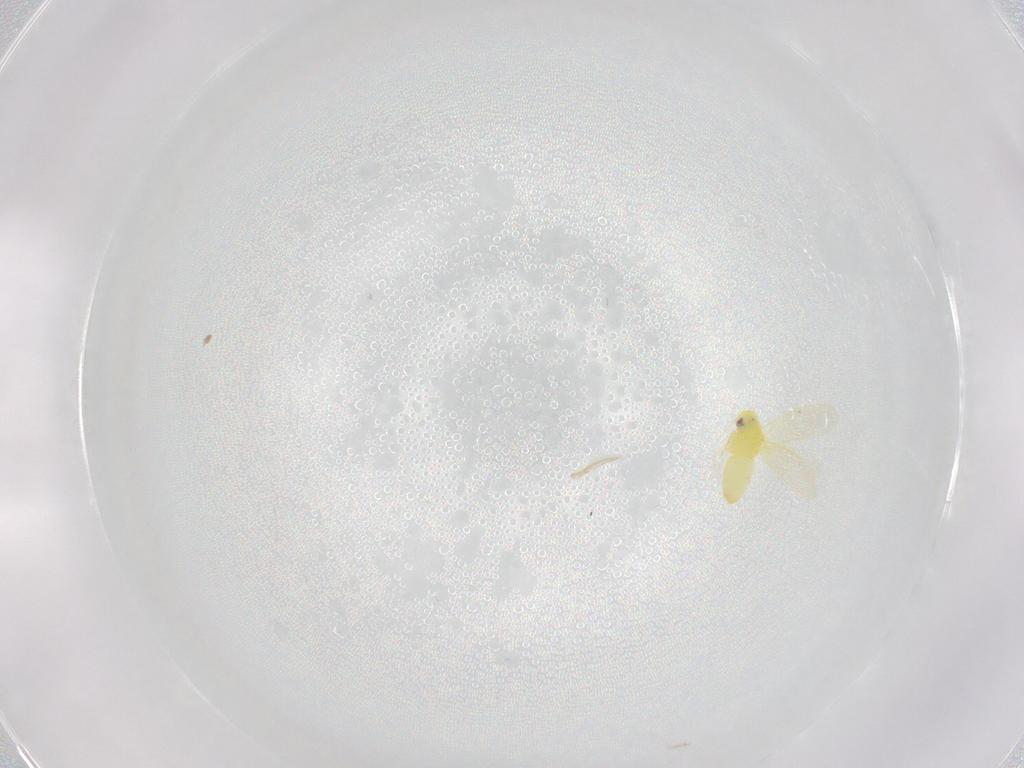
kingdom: Animalia
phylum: Arthropoda
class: Insecta
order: Hemiptera
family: Aleyrodidae
